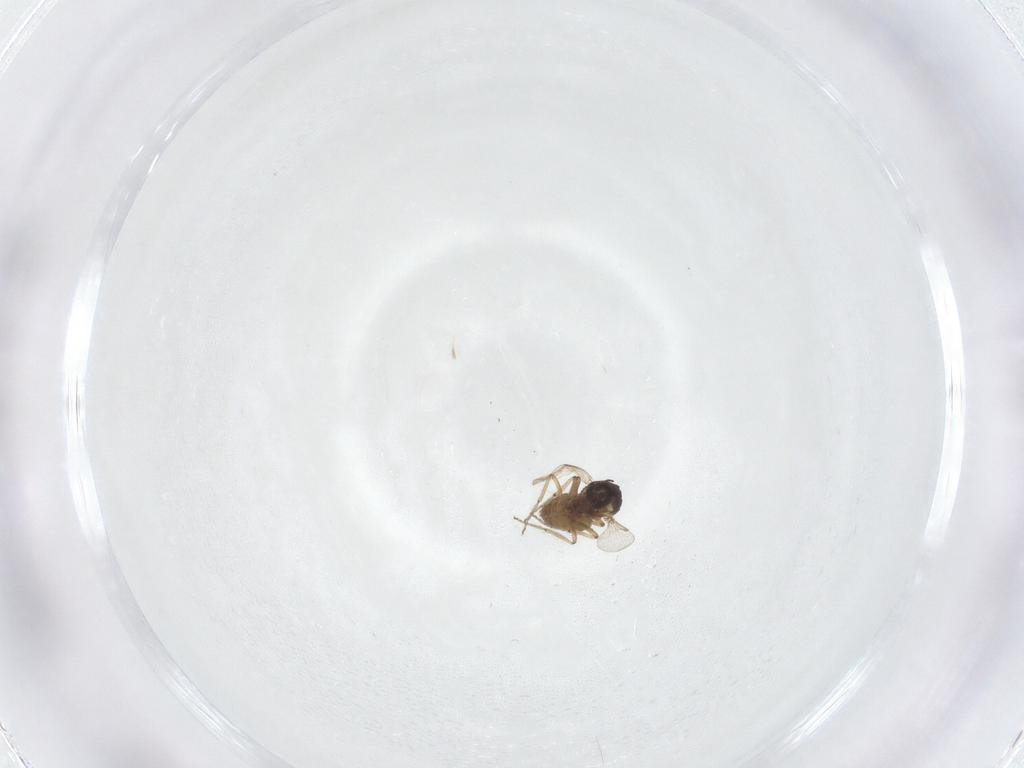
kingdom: Animalia
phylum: Arthropoda
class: Insecta
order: Diptera
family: Ceratopogonidae
